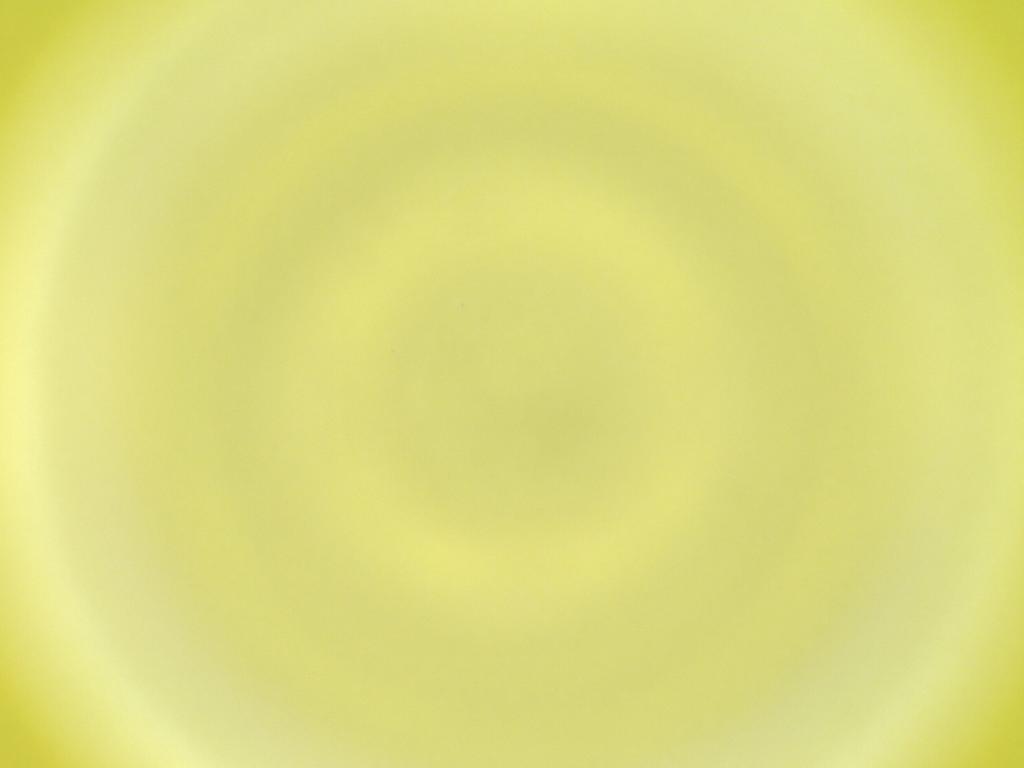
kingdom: Animalia
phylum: Arthropoda
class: Insecta
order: Diptera
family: Cecidomyiidae
